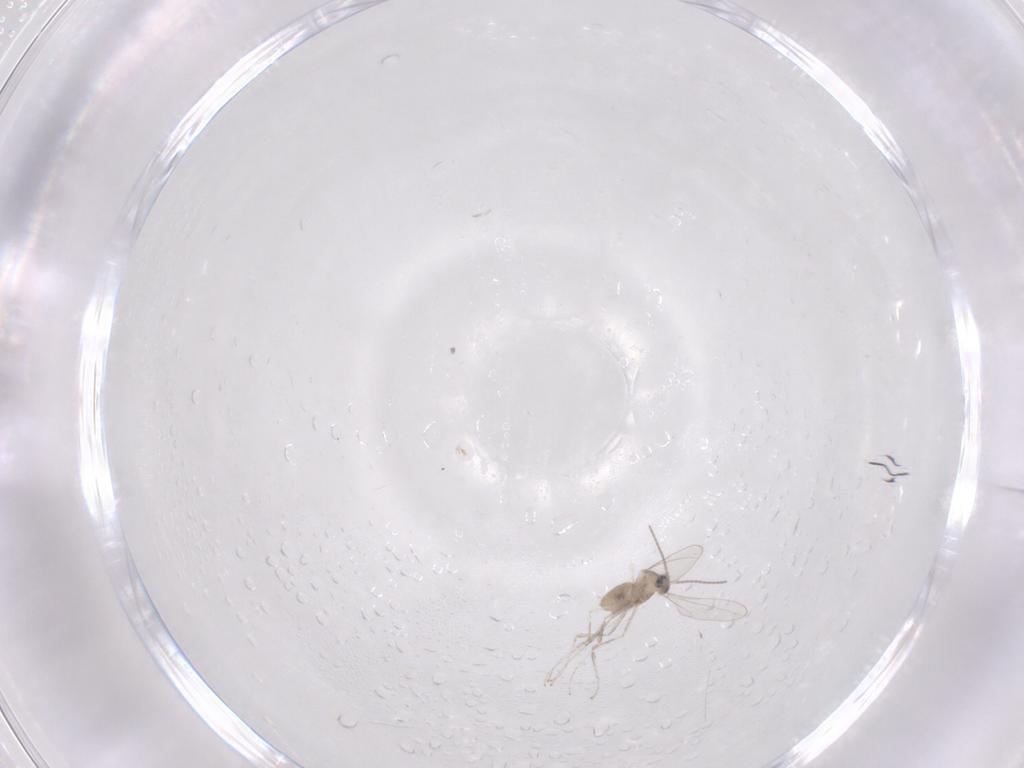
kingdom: Animalia
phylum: Arthropoda
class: Insecta
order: Diptera
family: Cecidomyiidae
